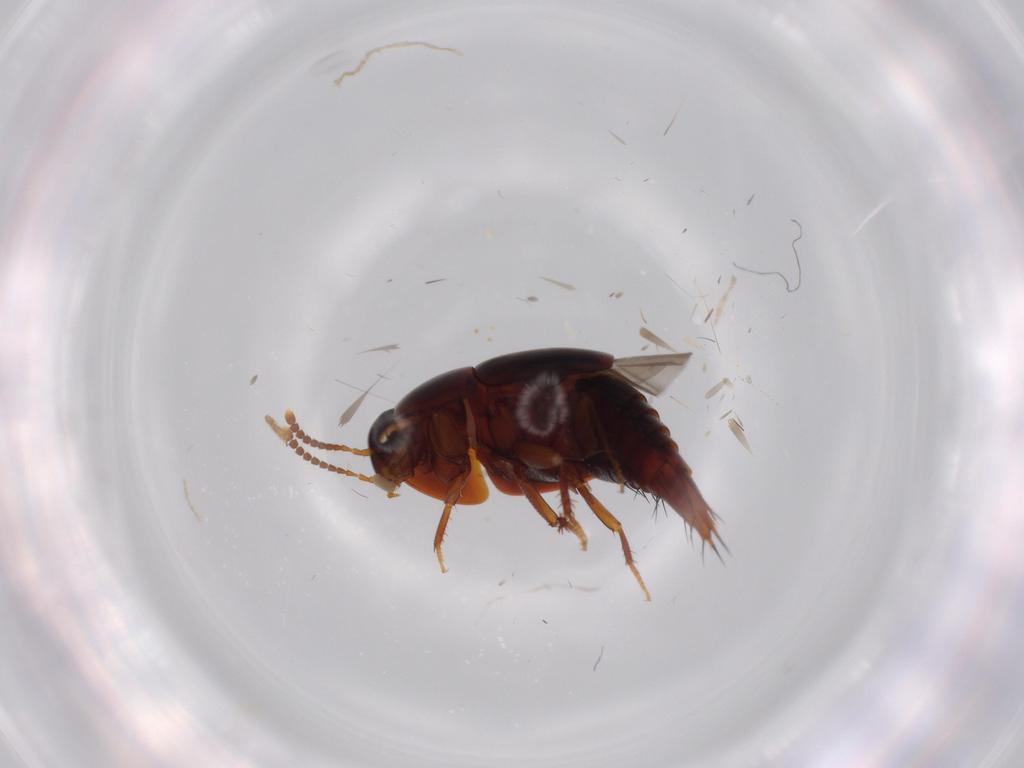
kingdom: Animalia
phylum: Arthropoda
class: Insecta
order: Coleoptera
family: Staphylinidae
